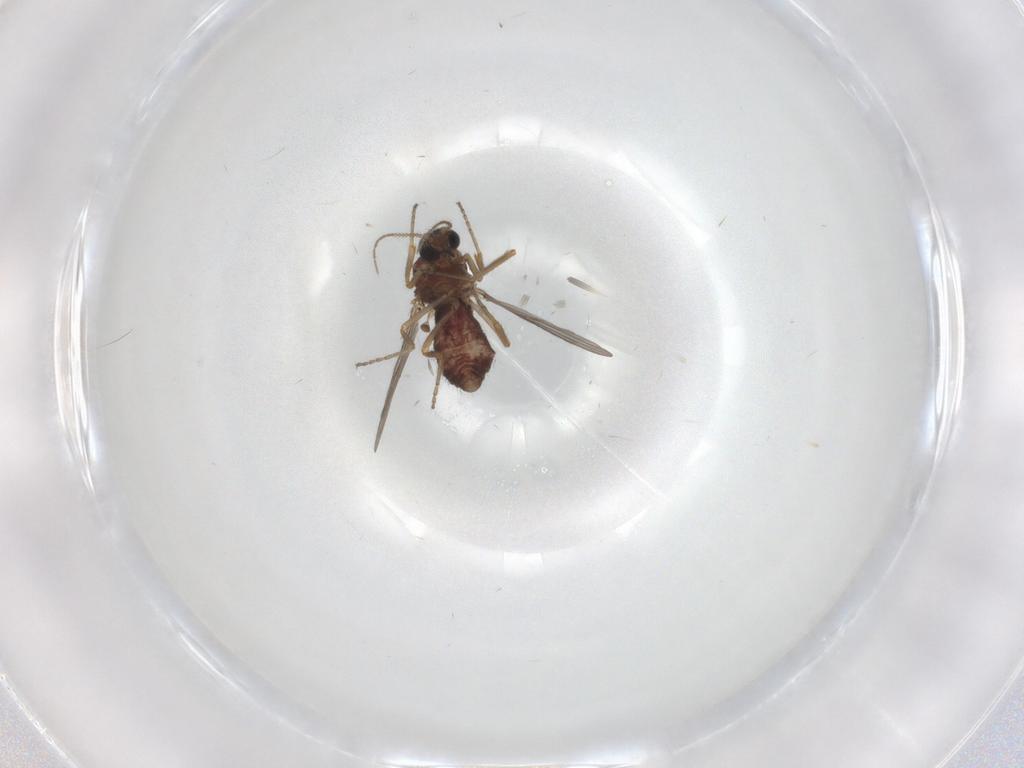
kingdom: Animalia
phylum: Arthropoda
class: Insecta
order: Diptera
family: Ceratopogonidae
